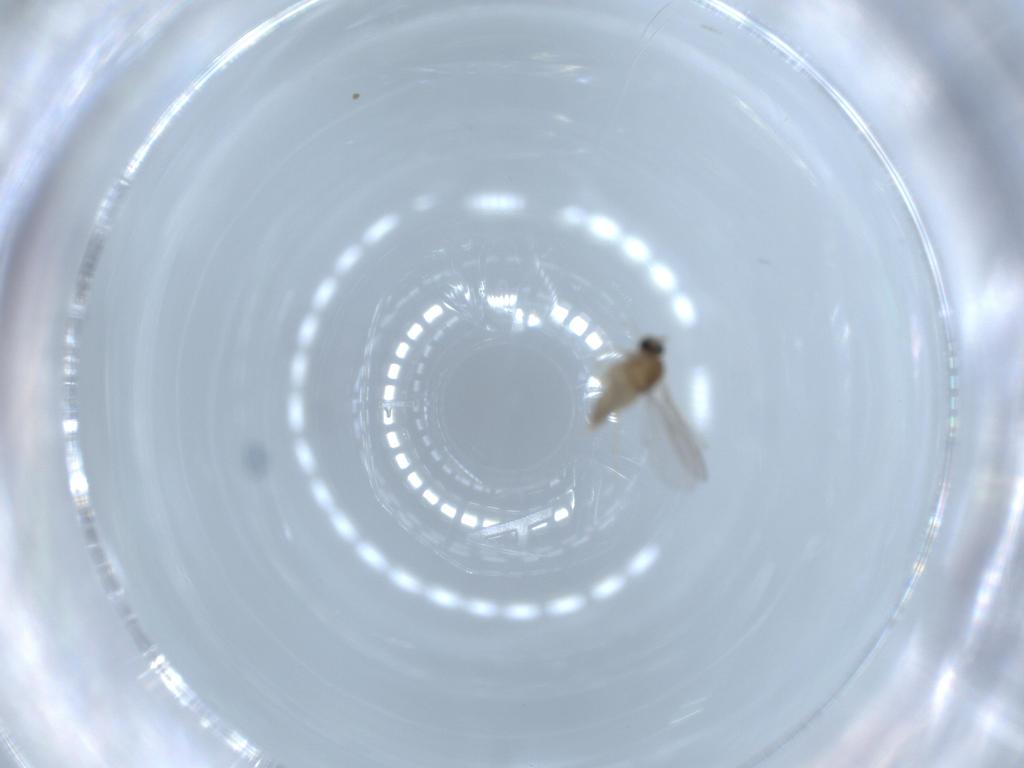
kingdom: Animalia
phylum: Arthropoda
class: Insecta
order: Diptera
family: Cecidomyiidae
